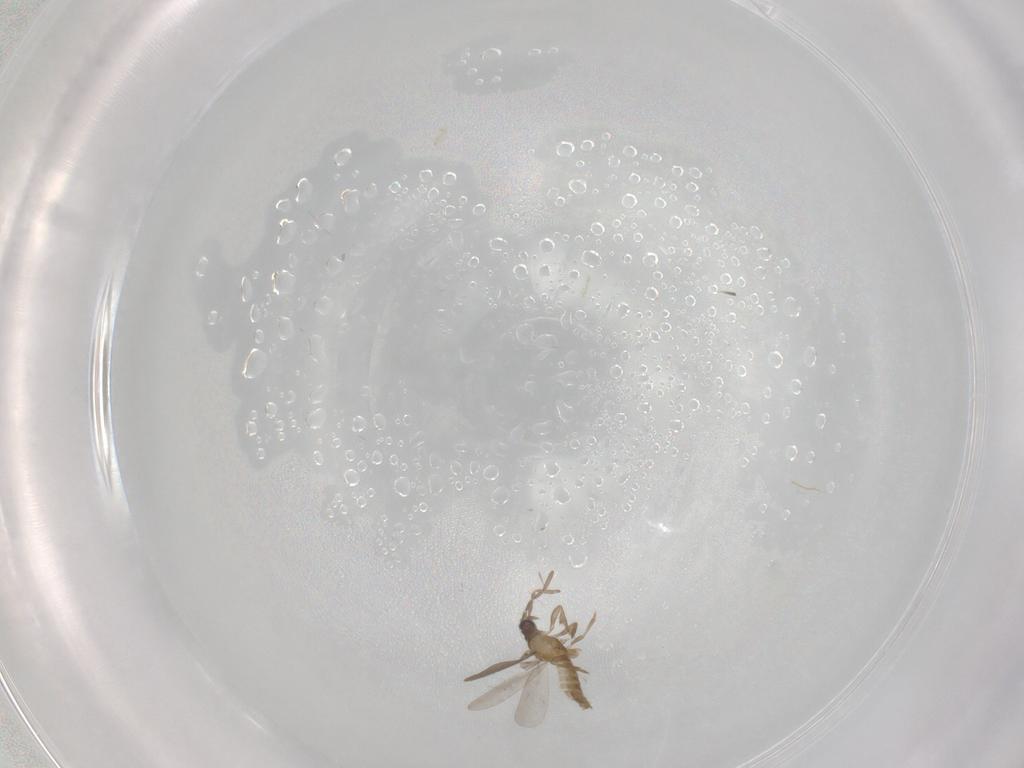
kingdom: Animalia
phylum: Arthropoda
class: Insecta
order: Hemiptera
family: Enicocephalidae
